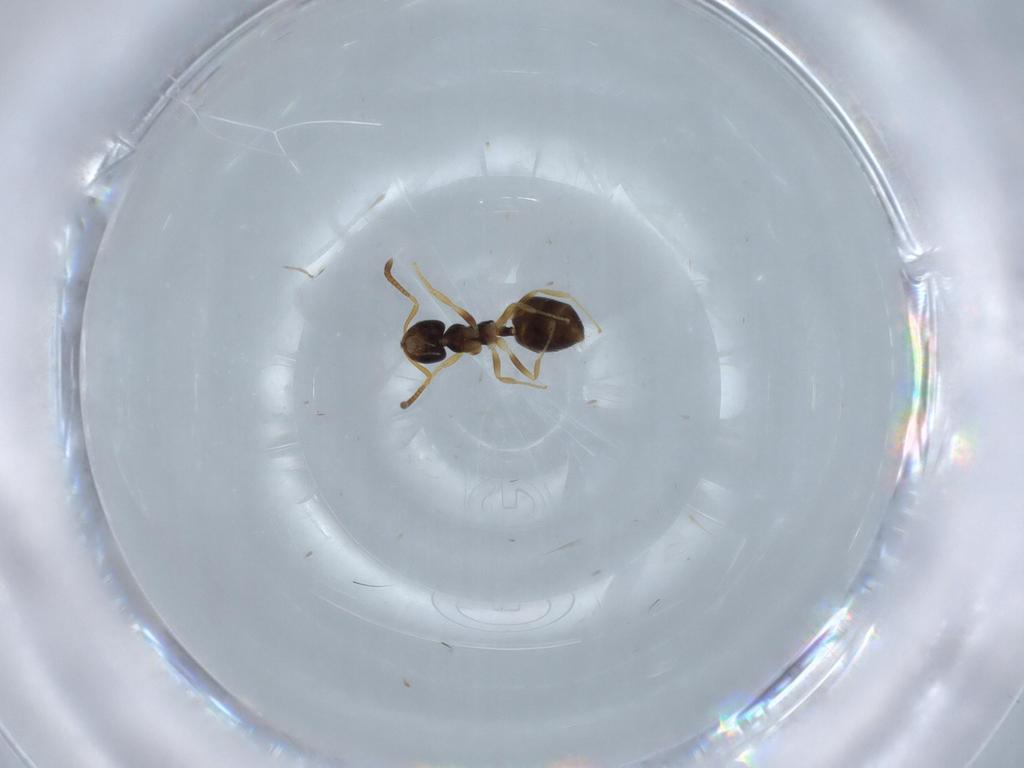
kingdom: Animalia
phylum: Arthropoda
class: Insecta
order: Hymenoptera
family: Formicidae
